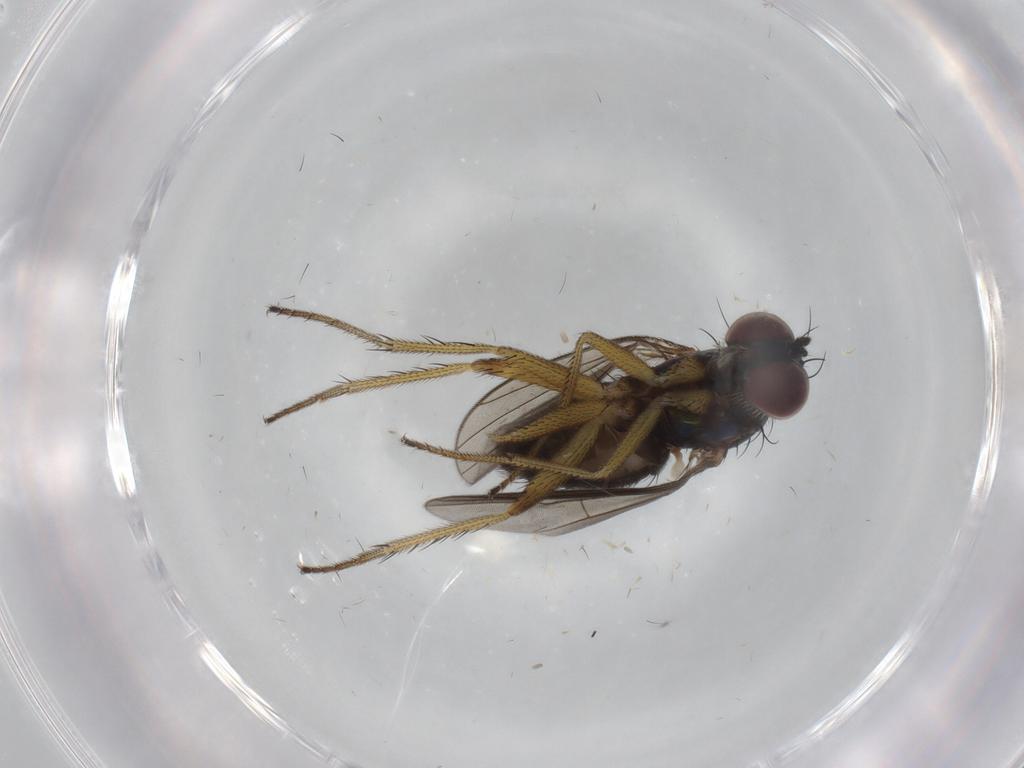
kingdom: Animalia
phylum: Arthropoda
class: Insecta
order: Diptera
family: Dolichopodidae
